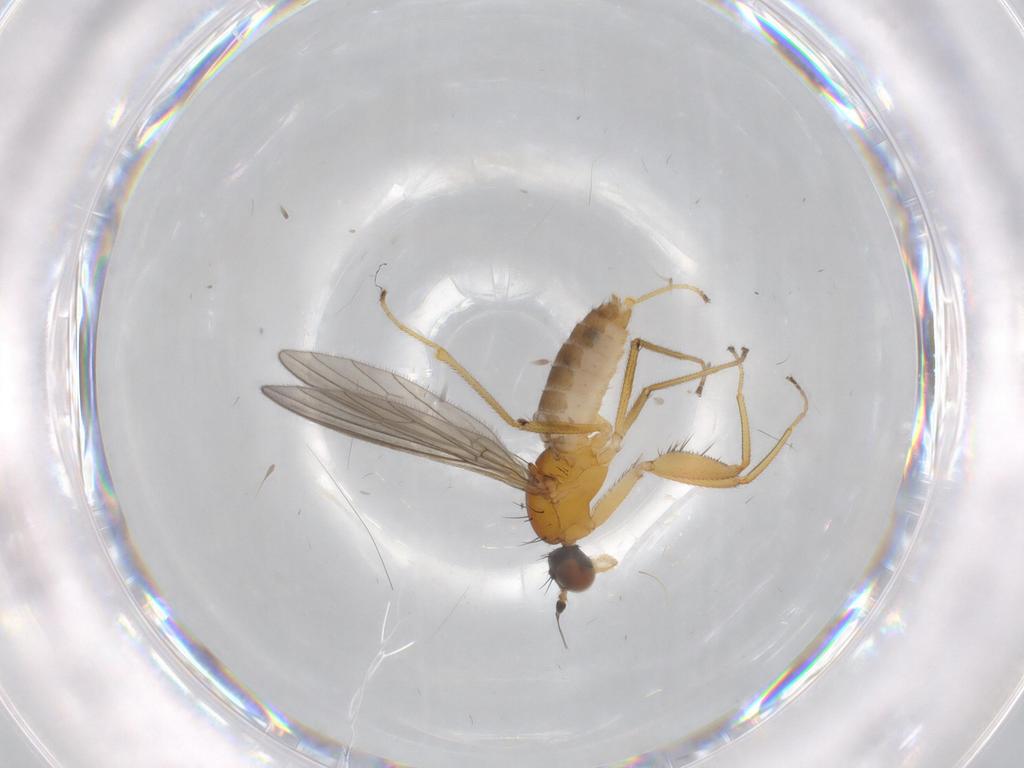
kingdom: Animalia
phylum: Arthropoda
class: Insecta
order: Diptera
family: Empididae
